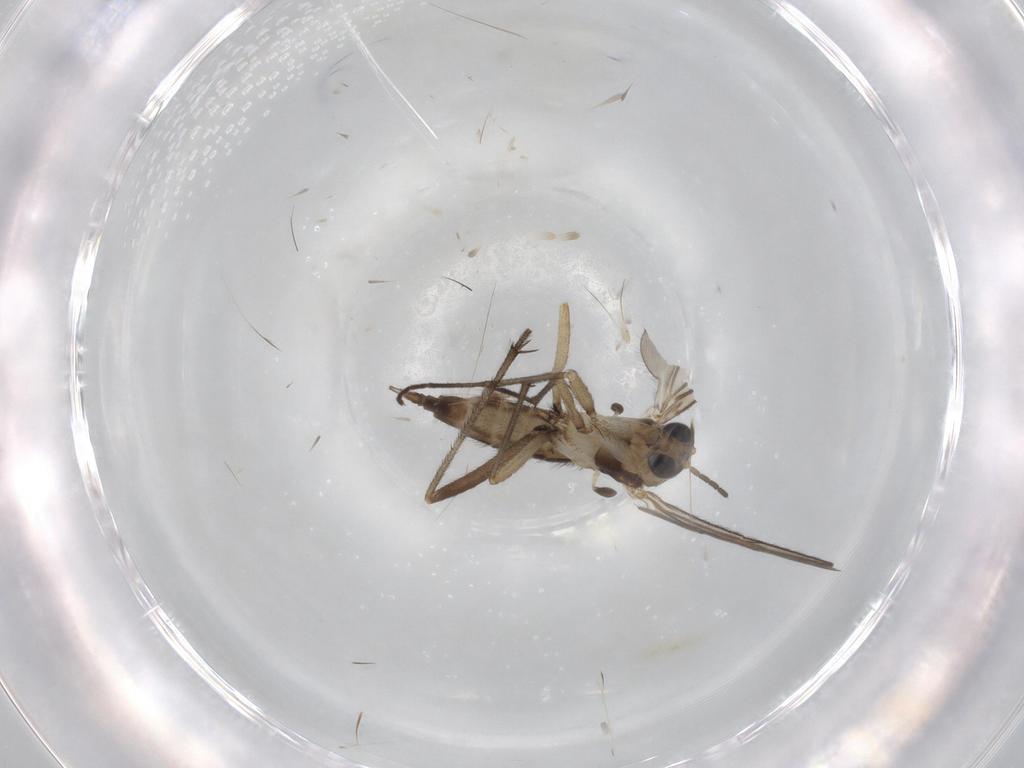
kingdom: Animalia
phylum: Arthropoda
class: Insecta
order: Diptera
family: Sciaridae
